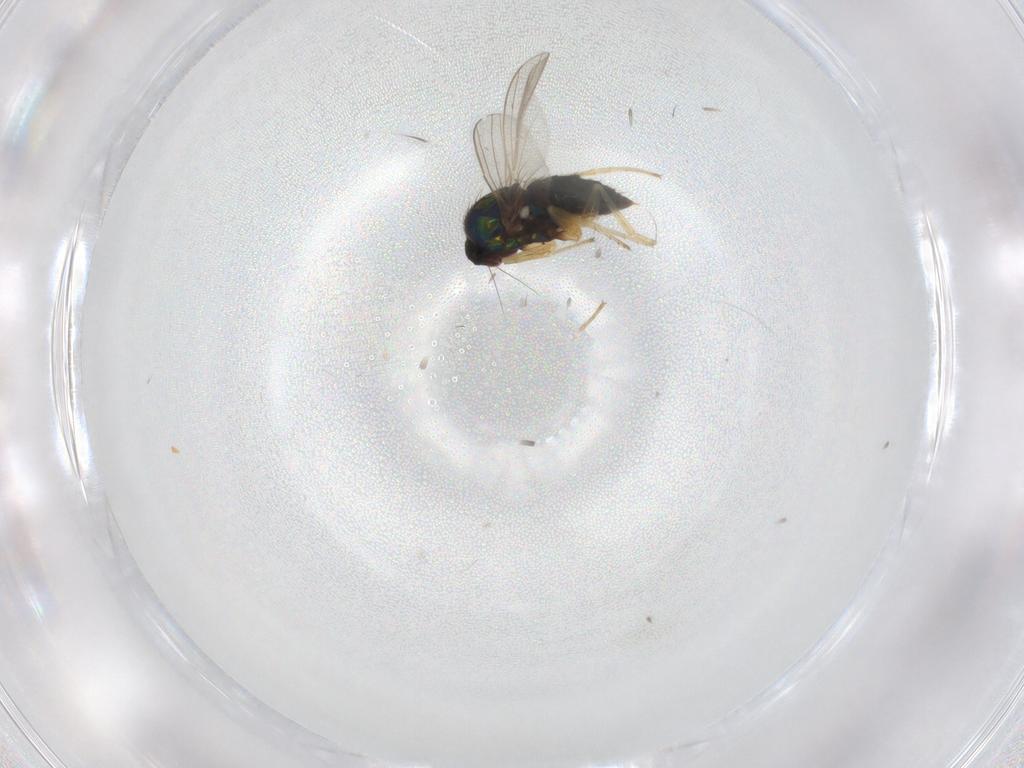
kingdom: Animalia
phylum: Arthropoda
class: Insecta
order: Diptera
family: Dolichopodidae
